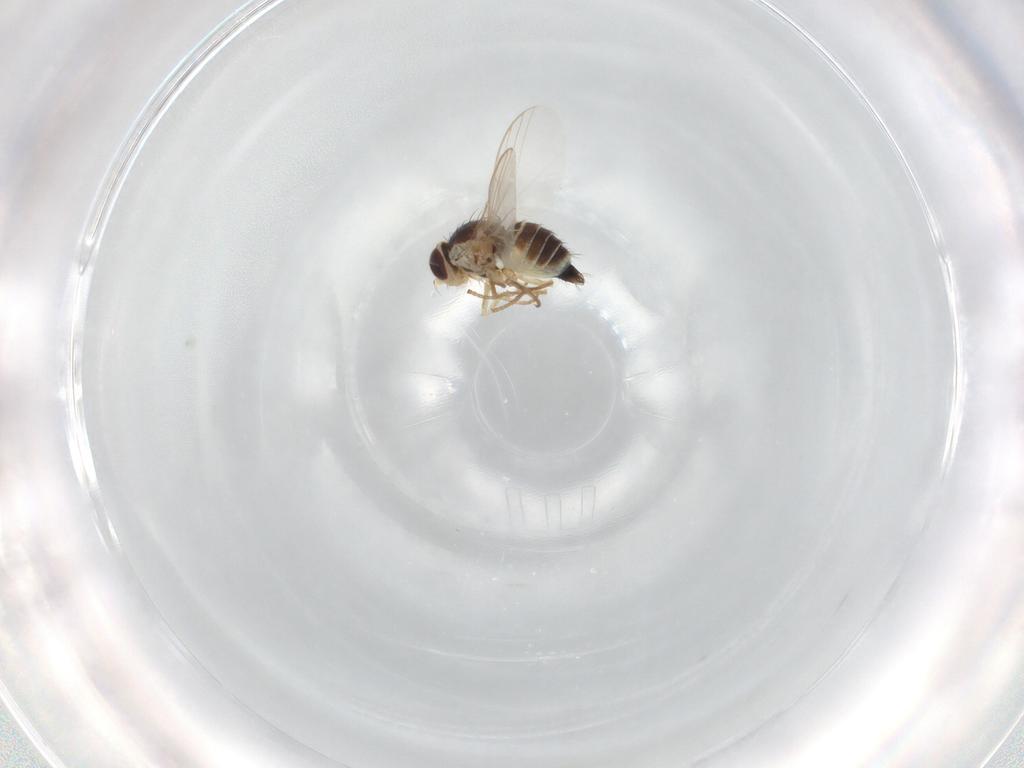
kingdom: Animalia
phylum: Arthropoda
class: Insecta
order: Diptera
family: Agromyzidae
